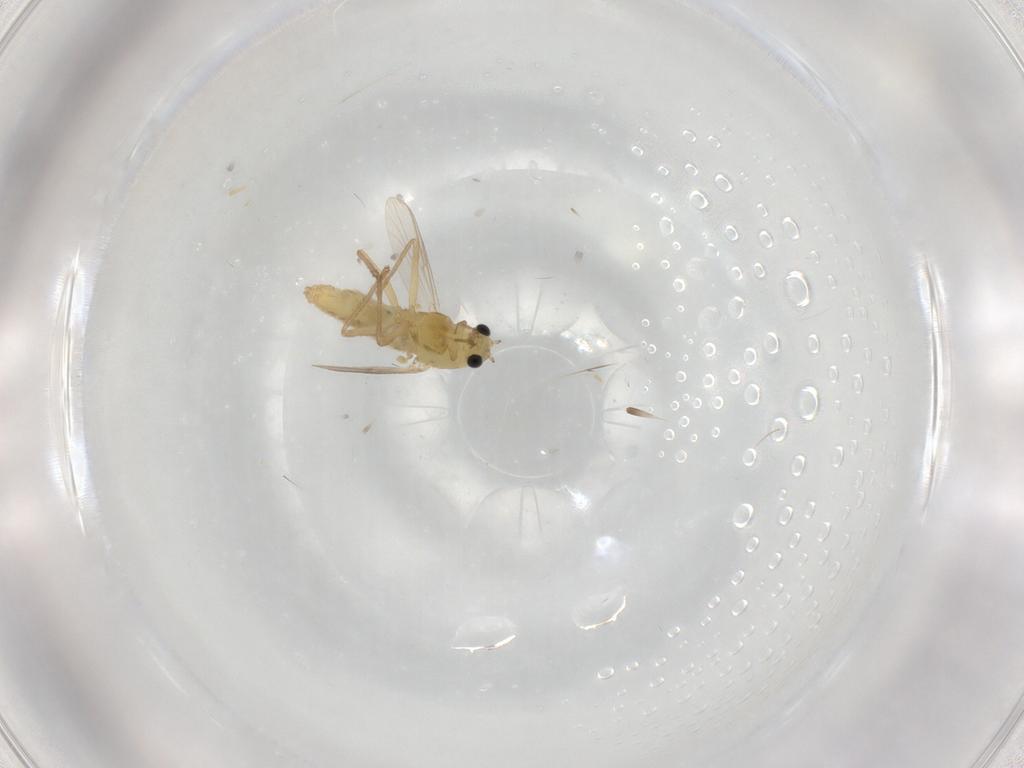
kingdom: Animalia
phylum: Arthropoda
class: Insecta
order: Diptera
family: Chironomidae
